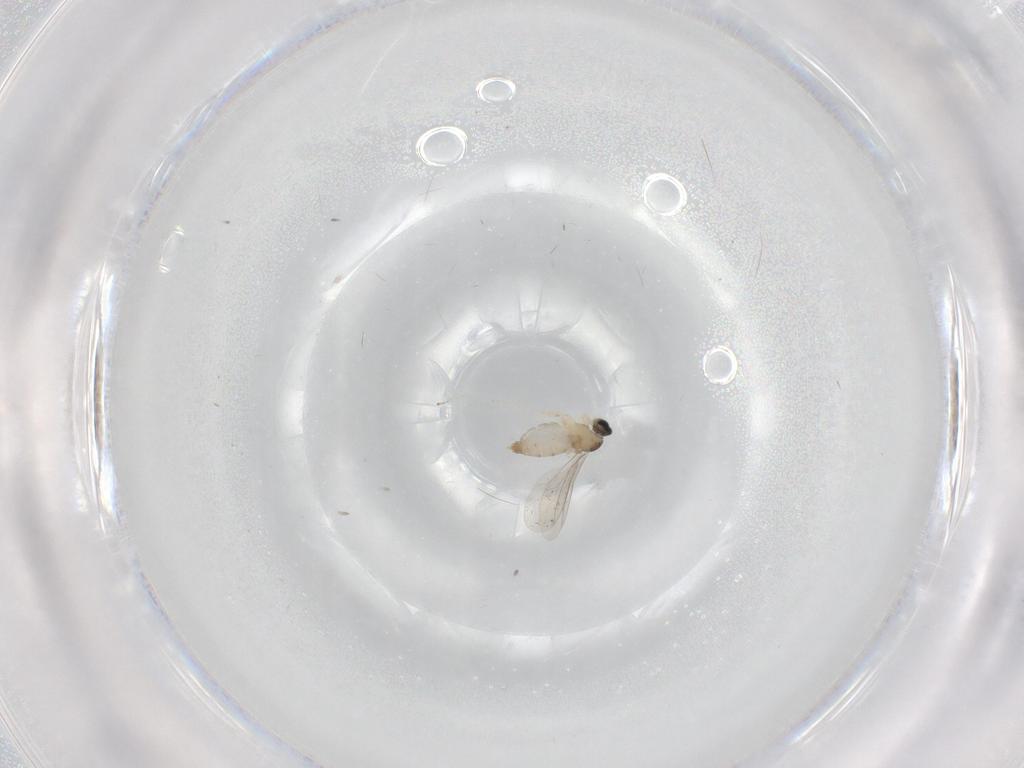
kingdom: Animalia
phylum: Arthropoda
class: Insecta
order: Diptera
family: Cecidomyiidae
